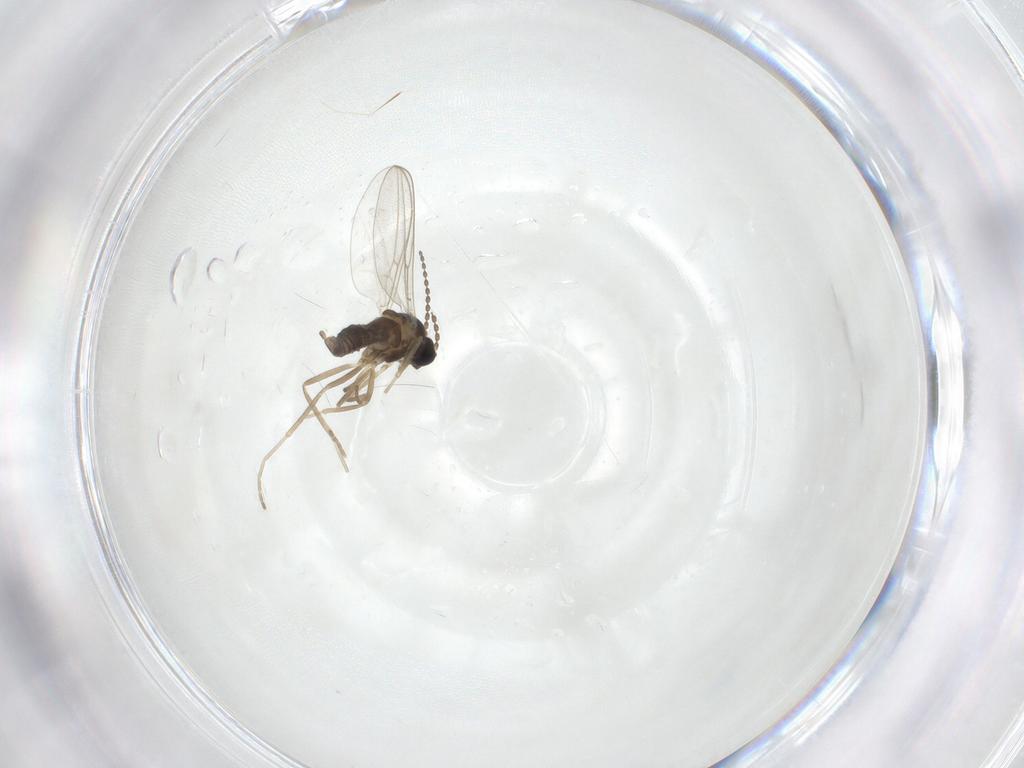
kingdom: Animalia
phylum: Arthropoda
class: Insecta
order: Diptera
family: Cecidomyiidae
